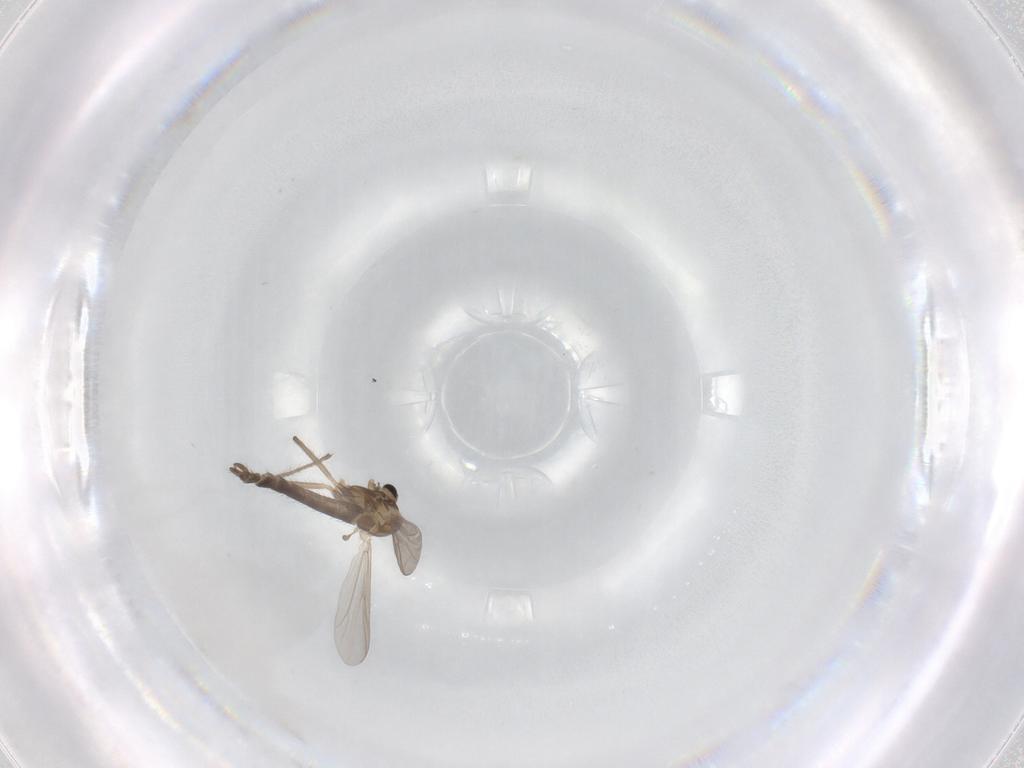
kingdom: Animalia
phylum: Arthropoda
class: Insecta
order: Diptera
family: Chironomidae
